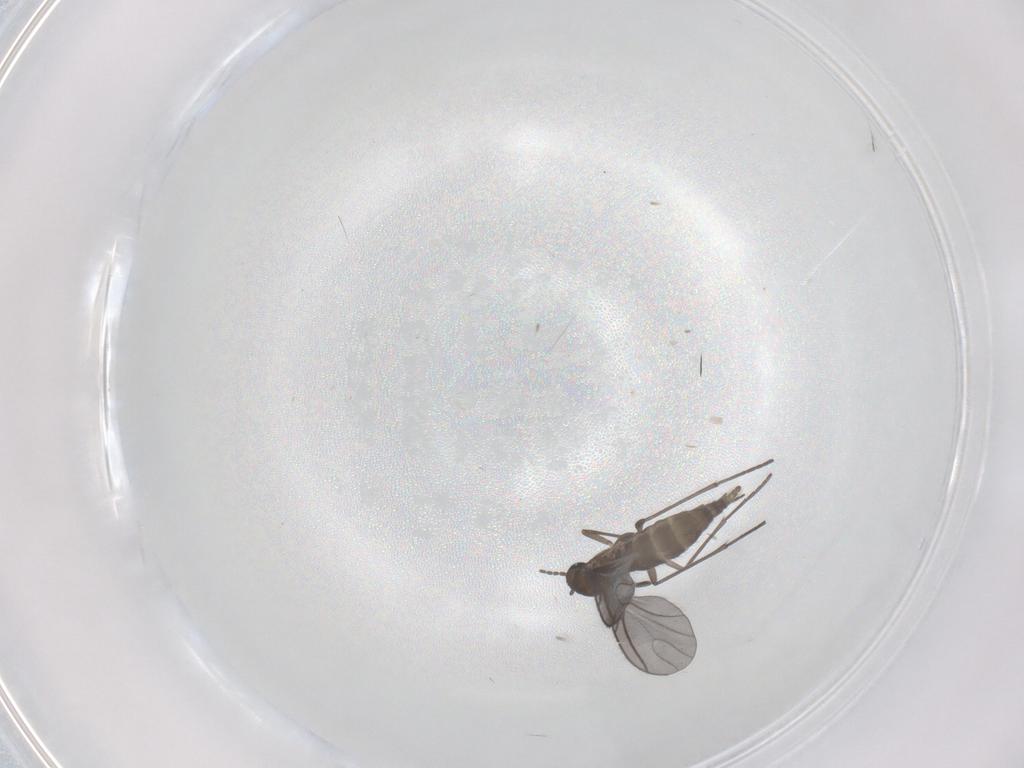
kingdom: Animalia
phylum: Arthropoda
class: Insecta
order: Diptera
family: Sciaridae
